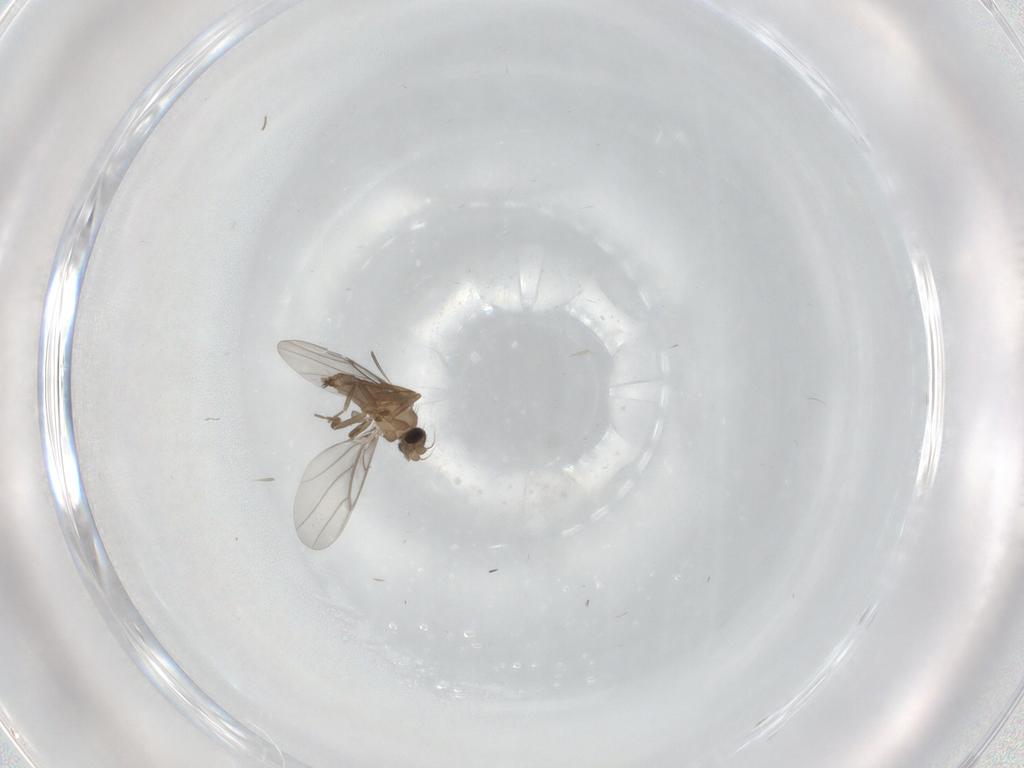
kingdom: Animalia
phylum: Arthropoda
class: Insecta
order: Diptera
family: Cecidomyiidae
